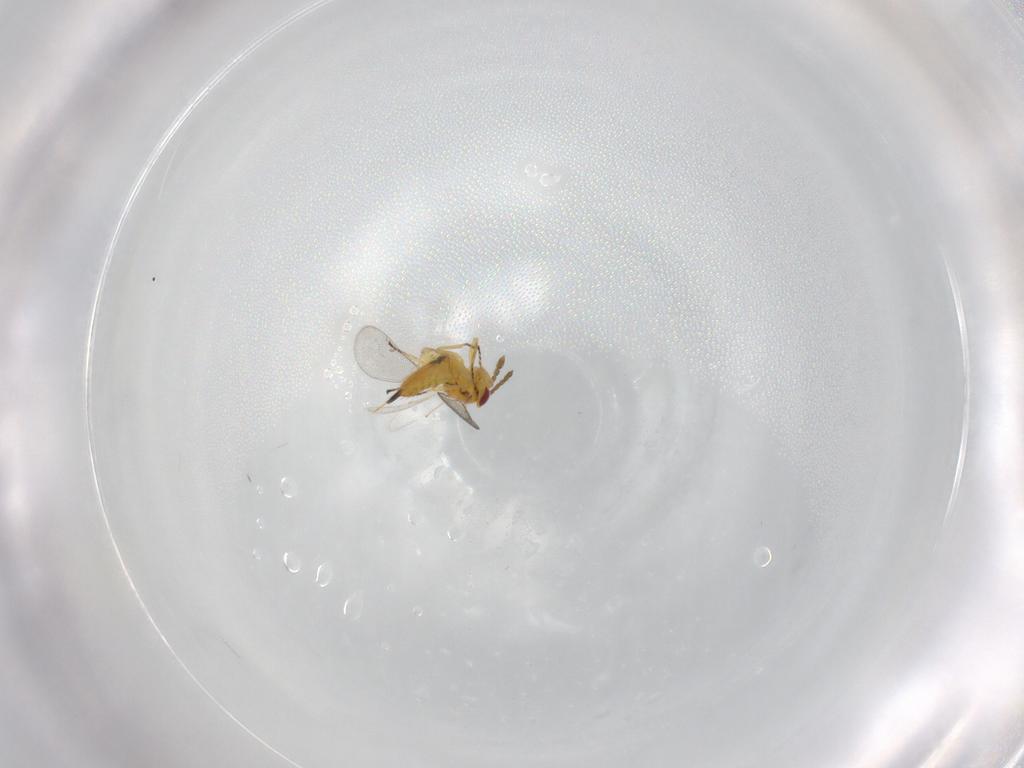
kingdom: Animalia
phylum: Arthropoda
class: Insecta
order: Hymenoptera
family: Eulophidae
